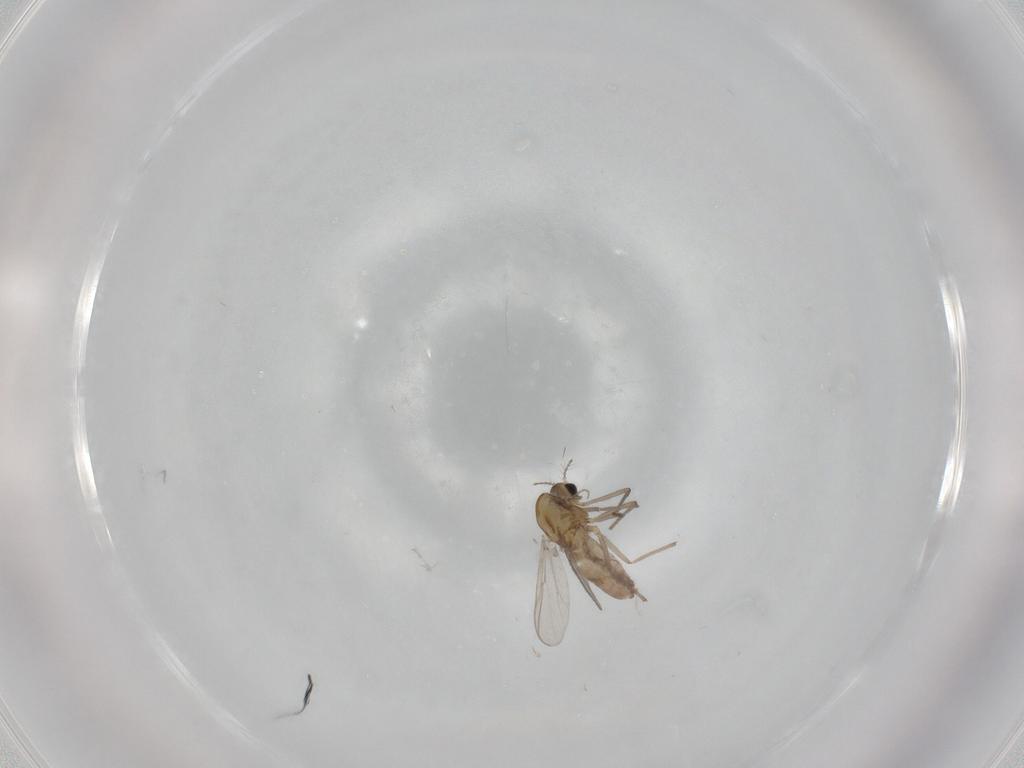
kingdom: Animalia
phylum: Arthropoda
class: Insecta
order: Diptera
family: Chironomidae
